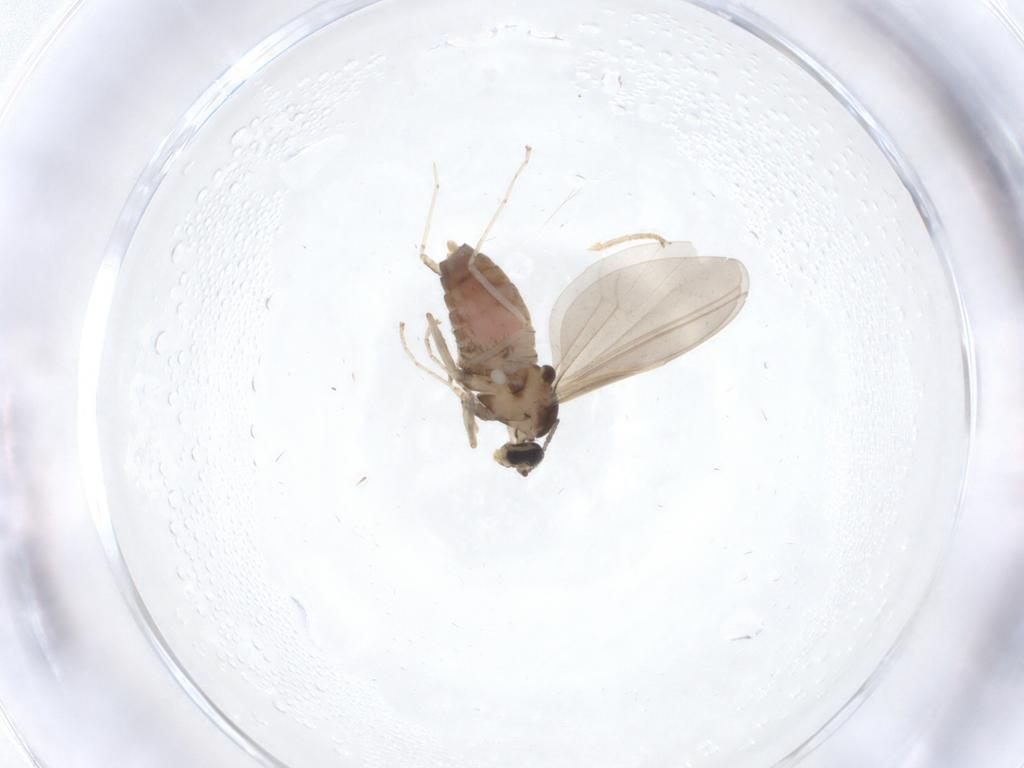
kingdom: Animalia
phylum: Arthropoda
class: Insecta
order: Diptera
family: Hybotidae
